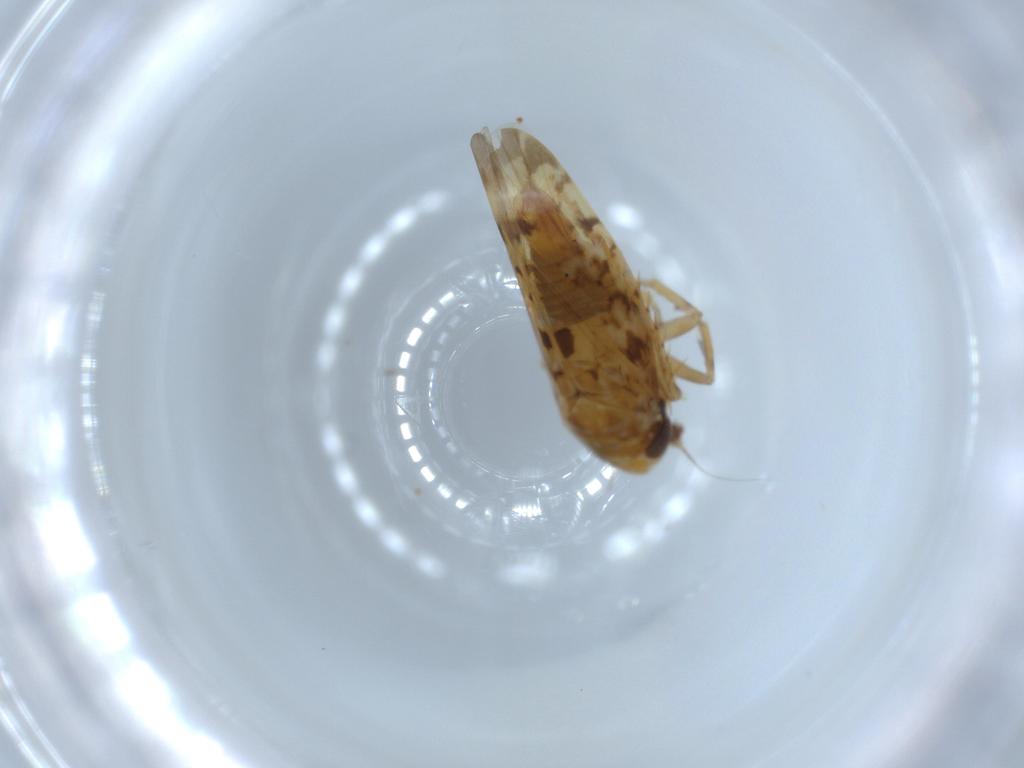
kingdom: Animalia
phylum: Arthropoda
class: Insecta
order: Hemiptera
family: Cicadellidae
